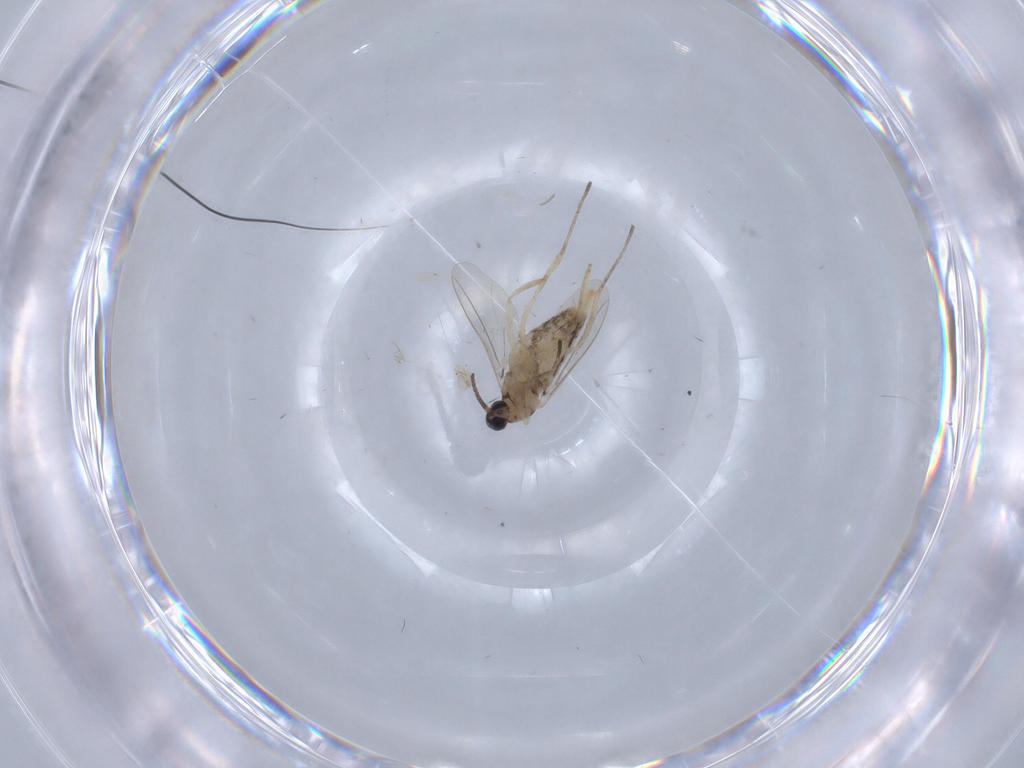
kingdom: Animalia
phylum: Arthropoda
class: Insecta
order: Diptera
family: Cecidomyiidae
